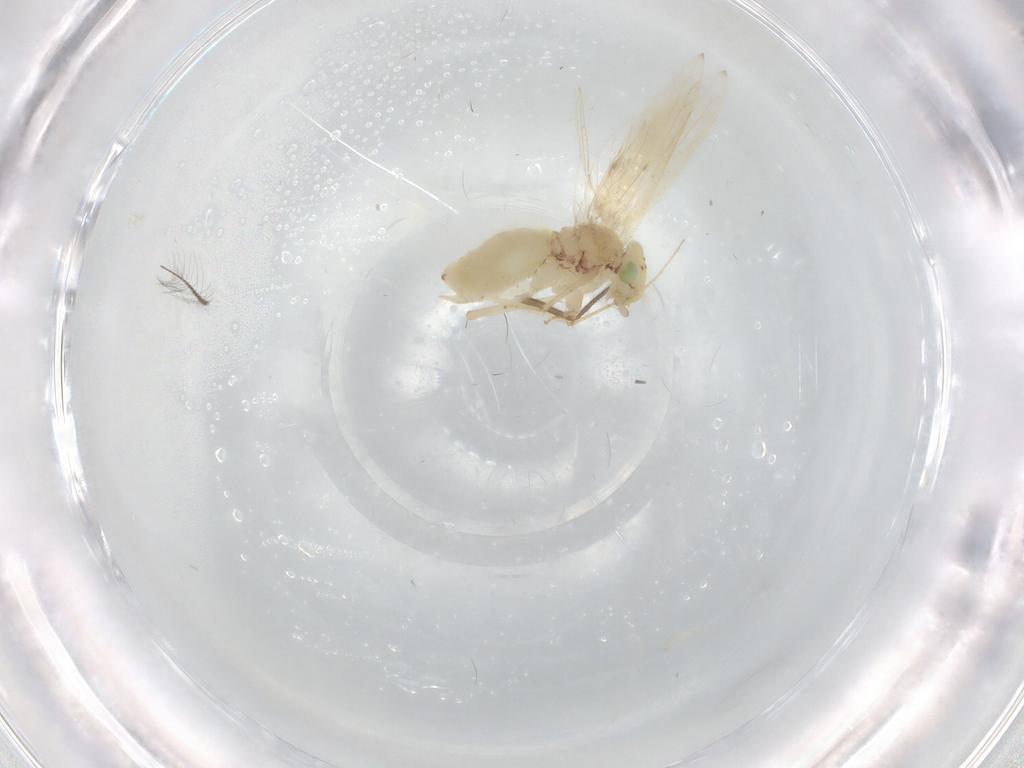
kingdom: Animalia
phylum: Arthropoda
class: Insecta
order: Psocodea
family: Lepidopsocidae
